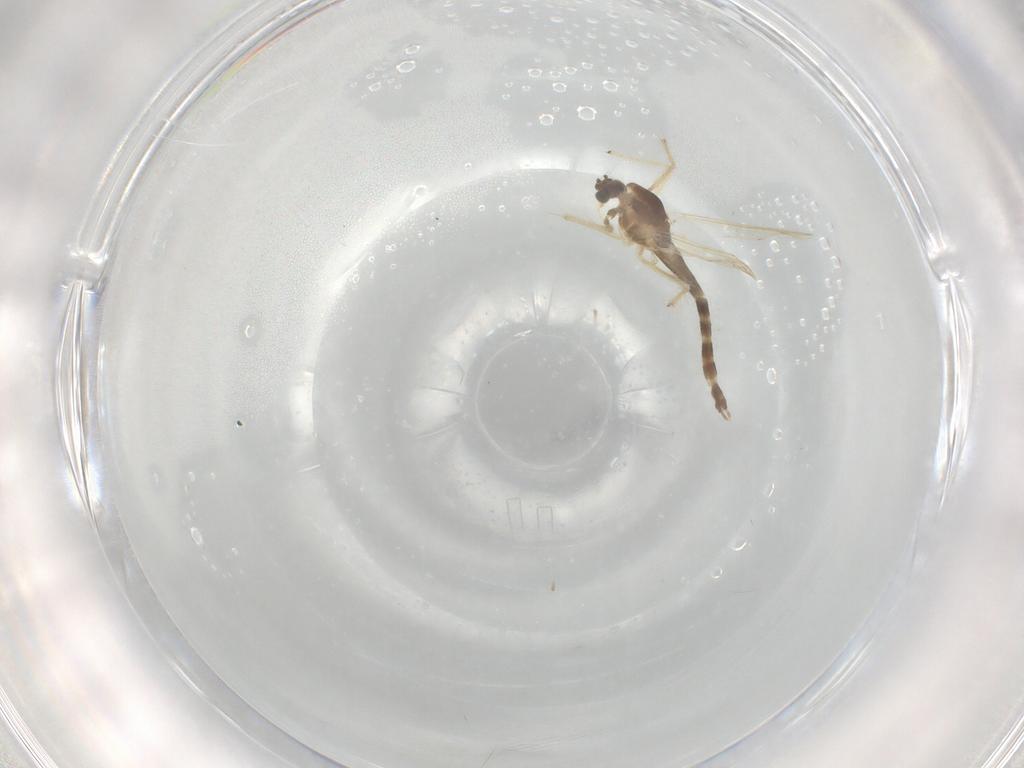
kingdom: Animalia
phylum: Arthropoda
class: Insecta
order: Diptera
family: Chironomidae
